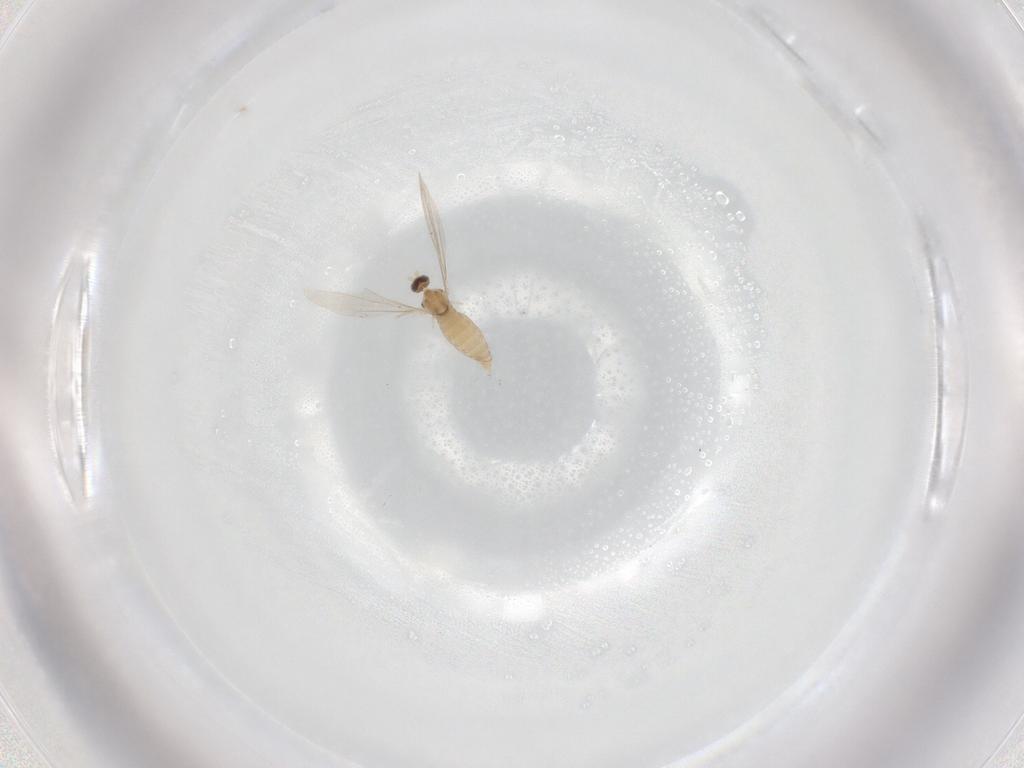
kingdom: Animalia
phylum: Arthropoda
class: Insecta
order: Diptera
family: Cecidomyiidae
